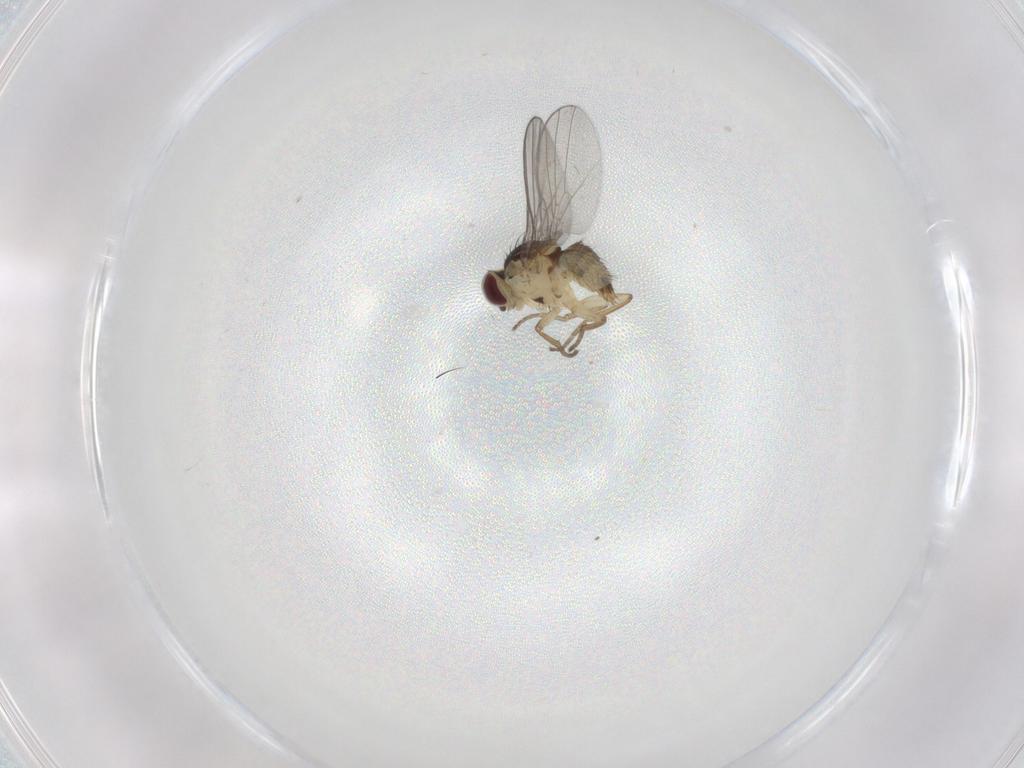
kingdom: Animalia
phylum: Arthropoda
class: Insecta
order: Diptera
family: Agromyzidae
